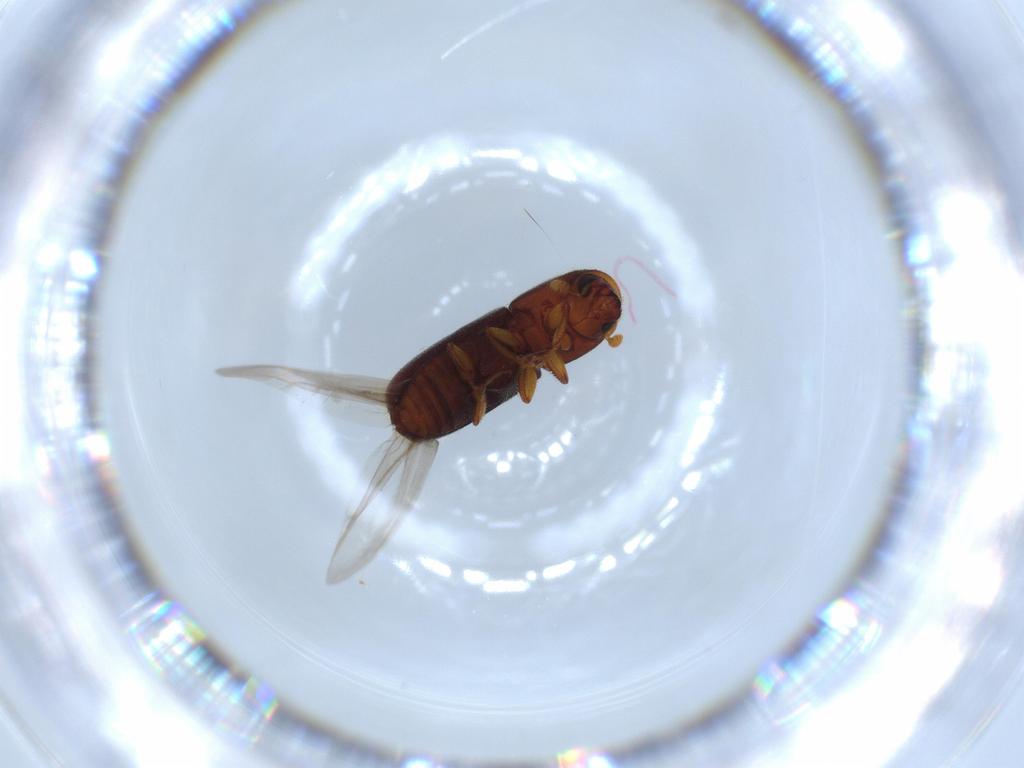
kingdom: Animalia
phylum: Arthropoda
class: Insecta
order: Coleoptera
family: Curculionidae
